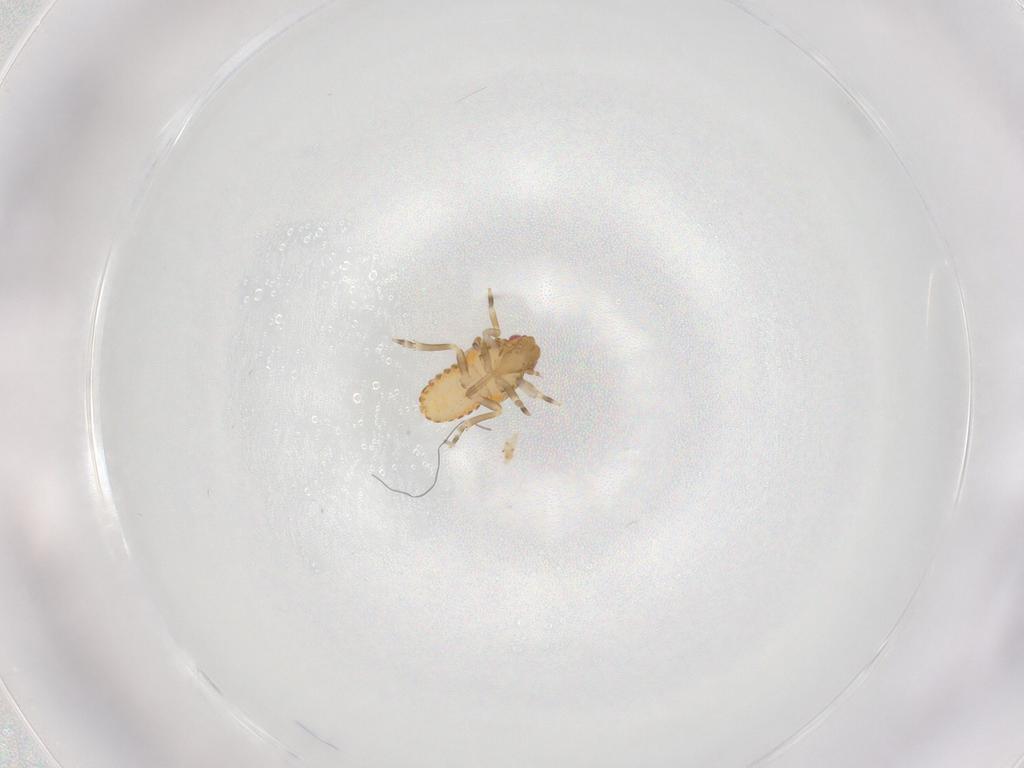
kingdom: Animalia
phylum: Arthropoda
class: Insecta
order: Hemiptera
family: Flatidae
